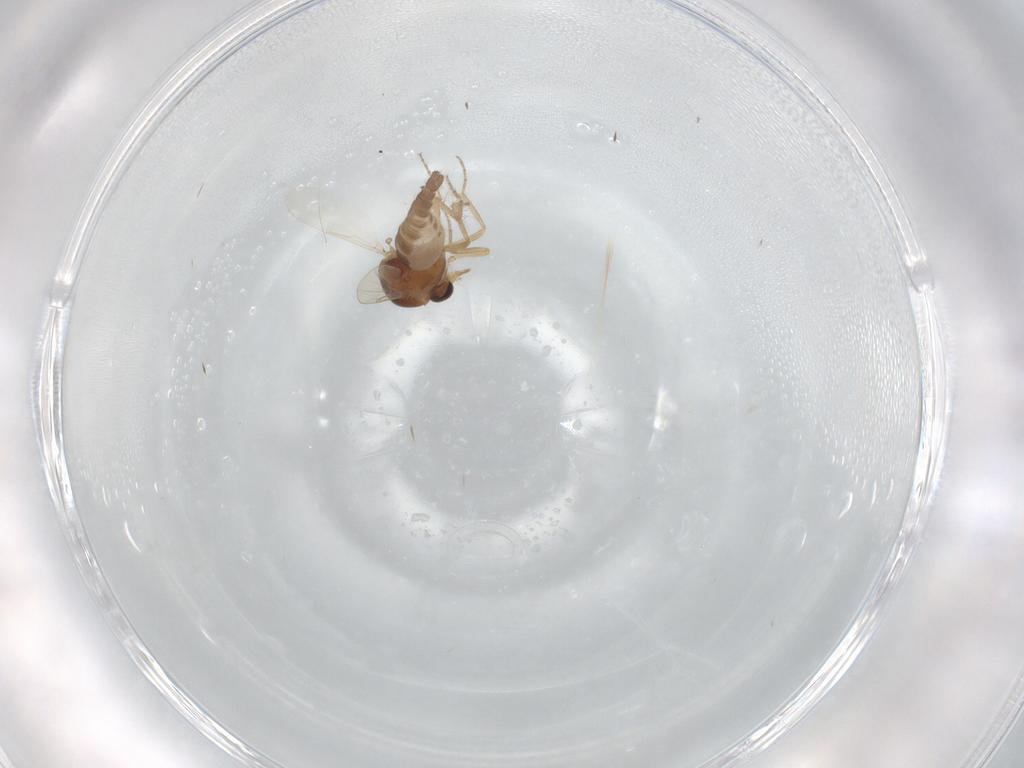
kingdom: Animalia
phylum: Arthropoda
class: Insecta
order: Diptera
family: Ceratopogonidae
